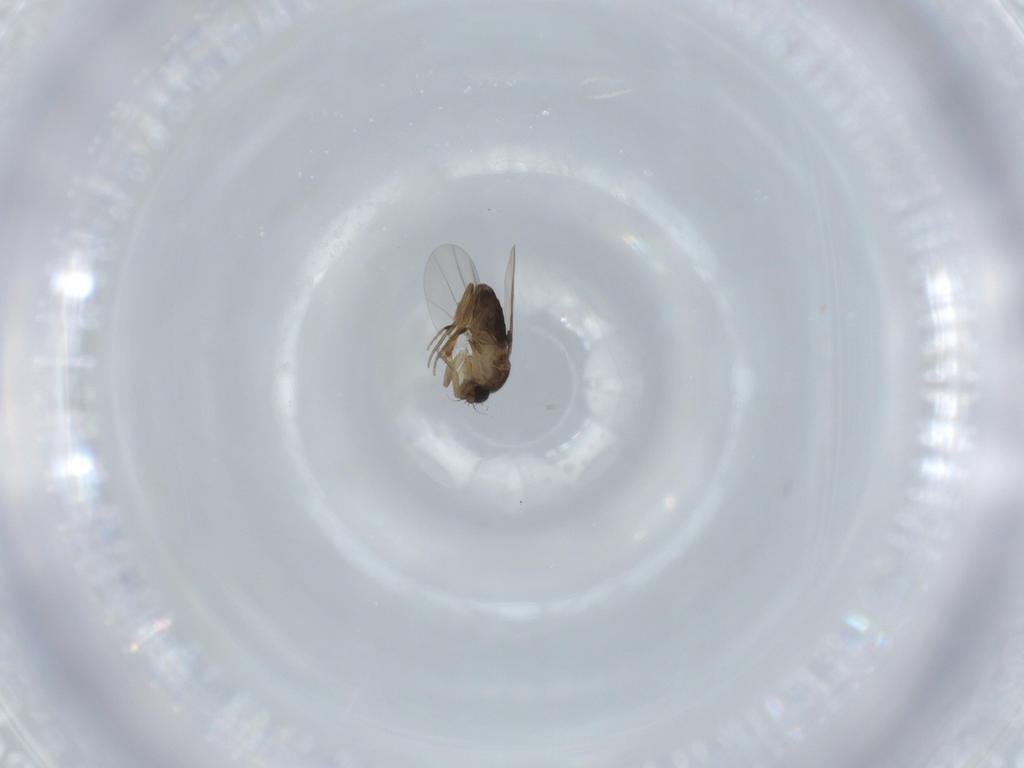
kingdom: Animalia
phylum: Arthropoda
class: Insecta
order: Diptera
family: Phoridae
